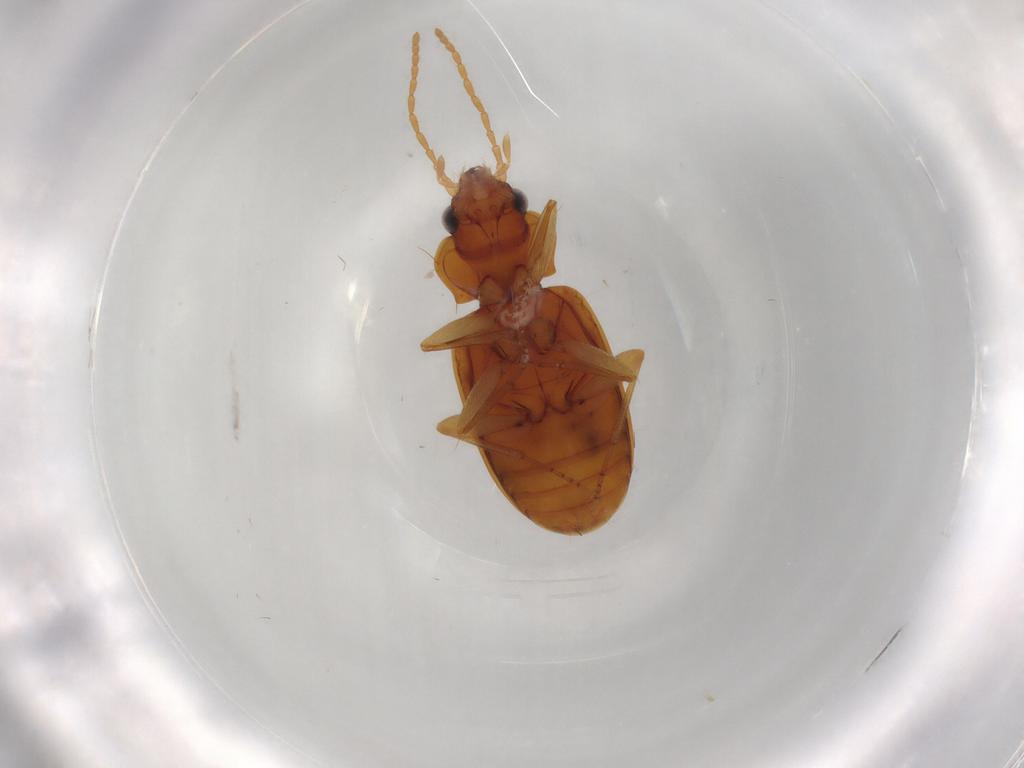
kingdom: Animalia
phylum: Arthropoda
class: Insecta
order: Coleoptera
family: Carabidae
